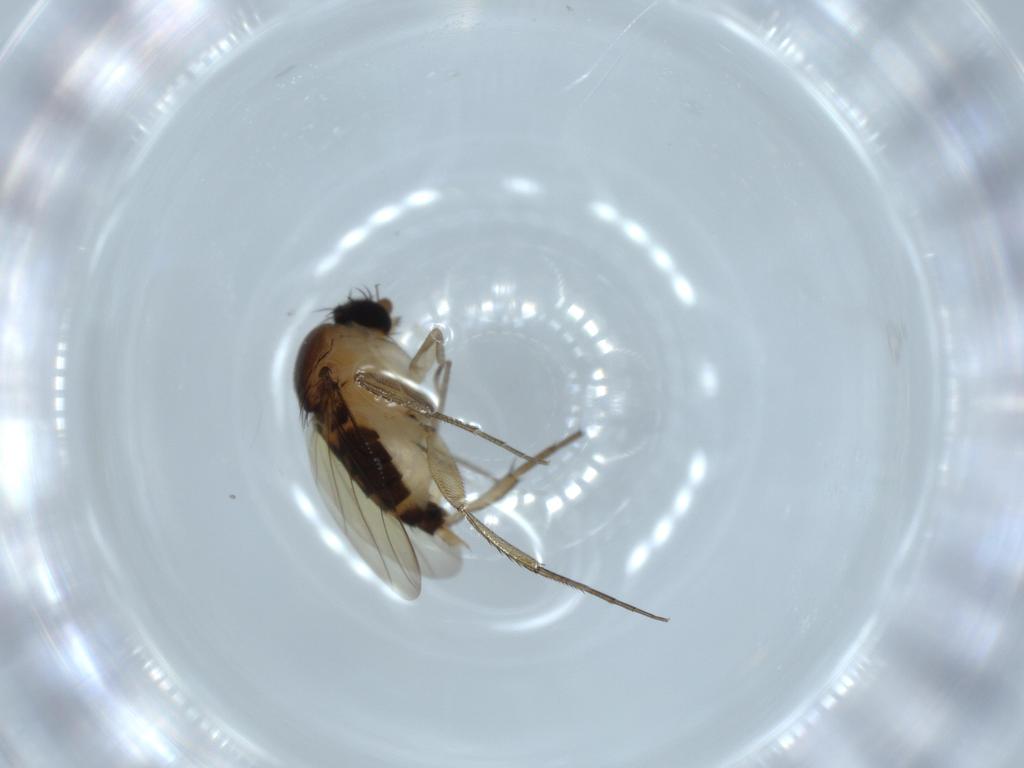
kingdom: Animalia
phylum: Arthropoda
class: Insecta
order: Diptera
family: Phoridae
